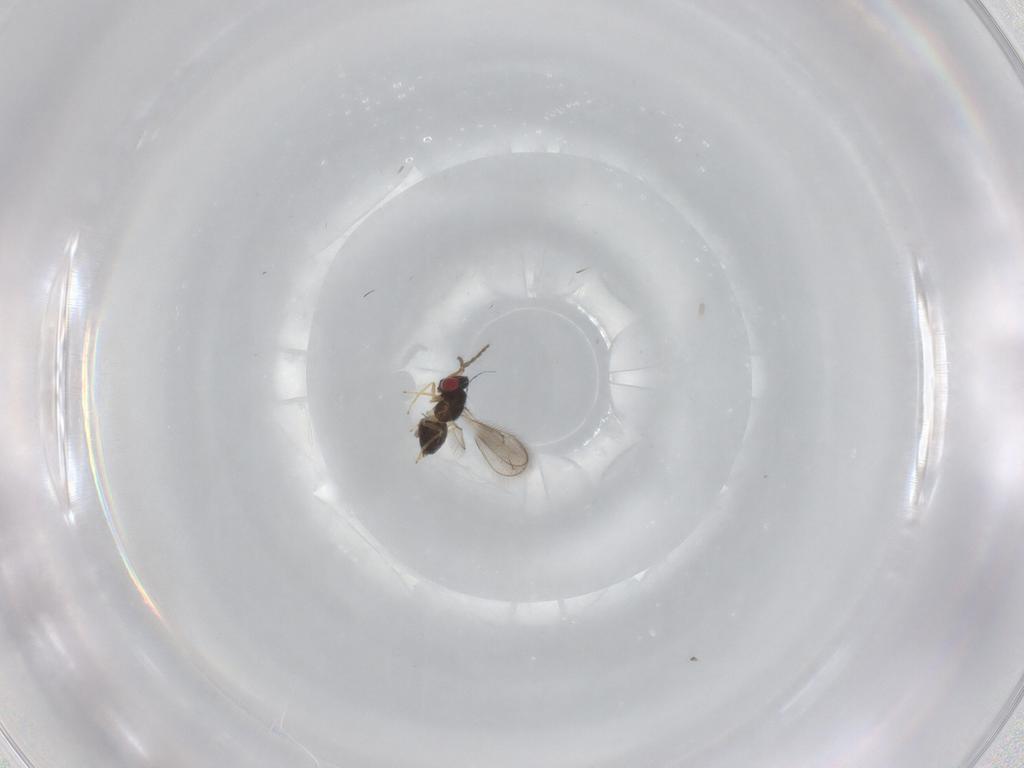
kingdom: Animalia
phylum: Arthropoda
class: Insecta
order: Hymenoptera
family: Eulophidae
